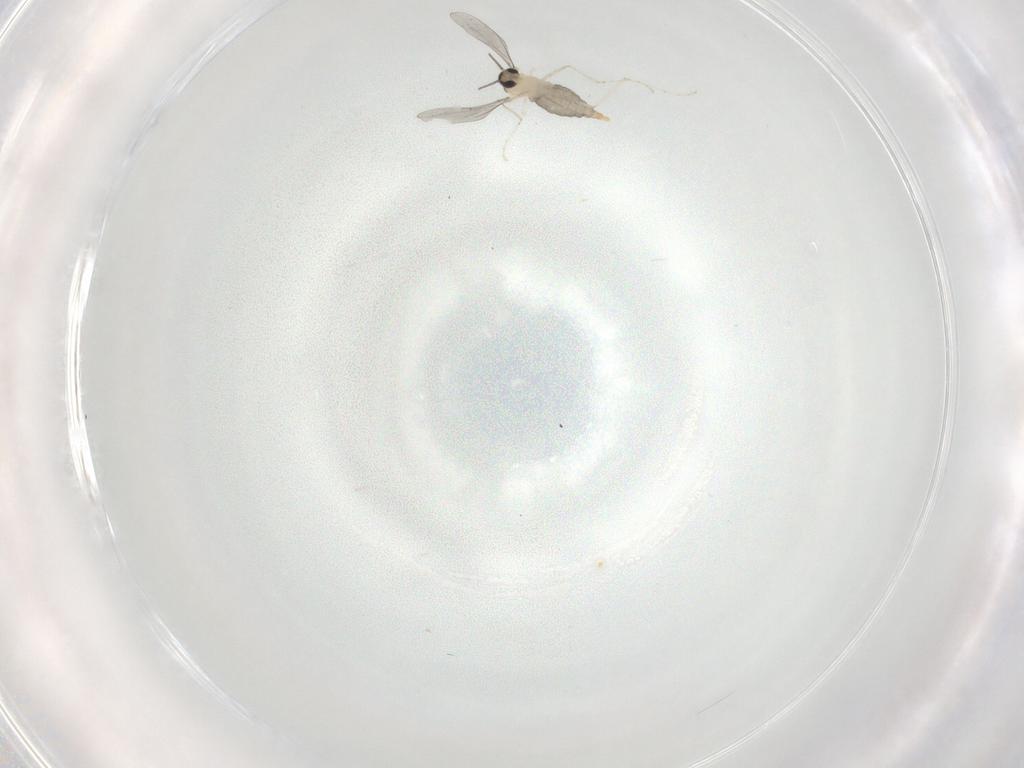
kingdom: Animalia
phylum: Arthropoda
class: Insecta
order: Diptera
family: Cecidomyiidae
